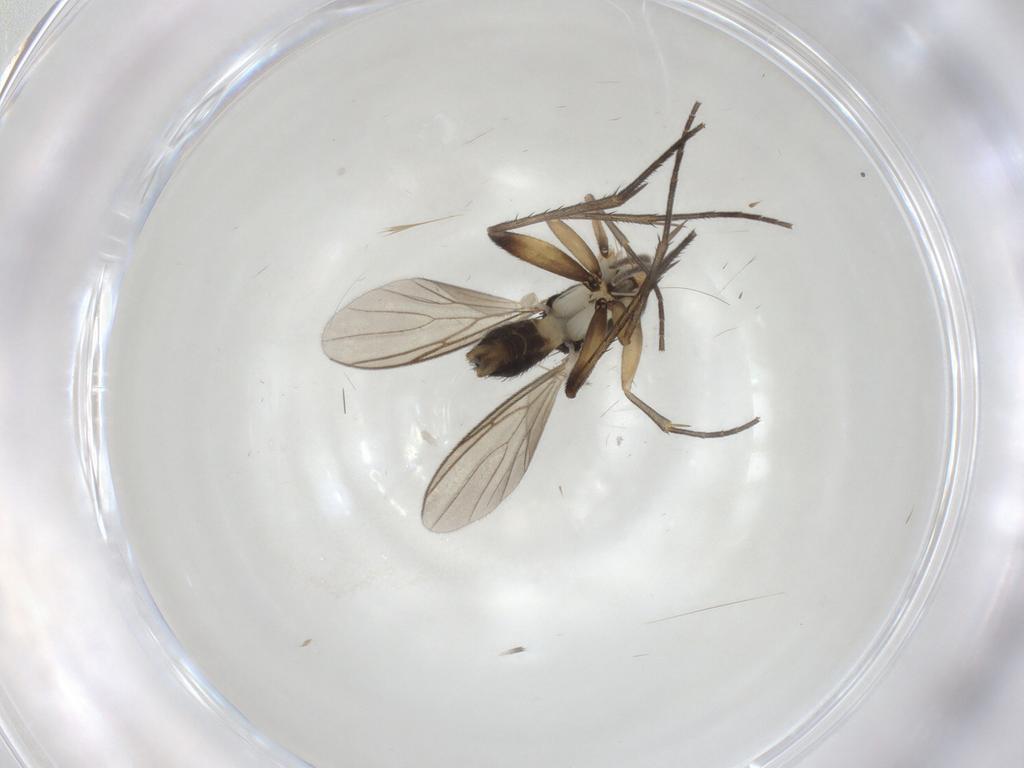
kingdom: Animalia
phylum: Arthropoda
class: Insecta
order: Diptera
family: Mycetophilidae
